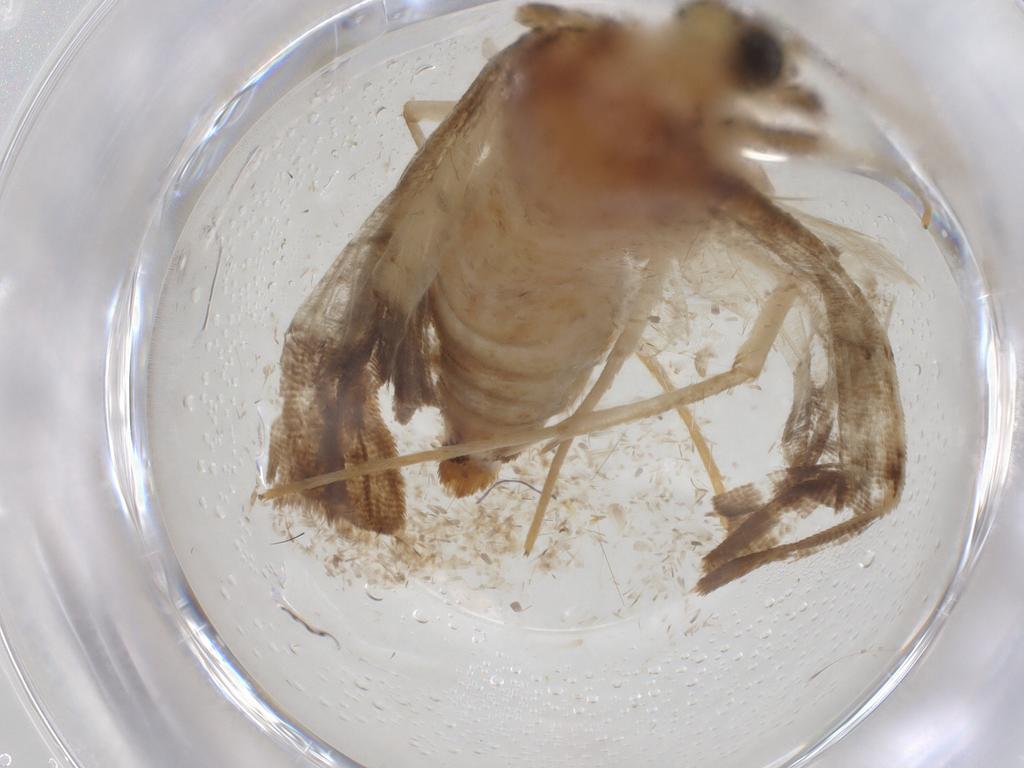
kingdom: Animalia
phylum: Arthropoda
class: Insecta
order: Lepidoptera
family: Crambidae
